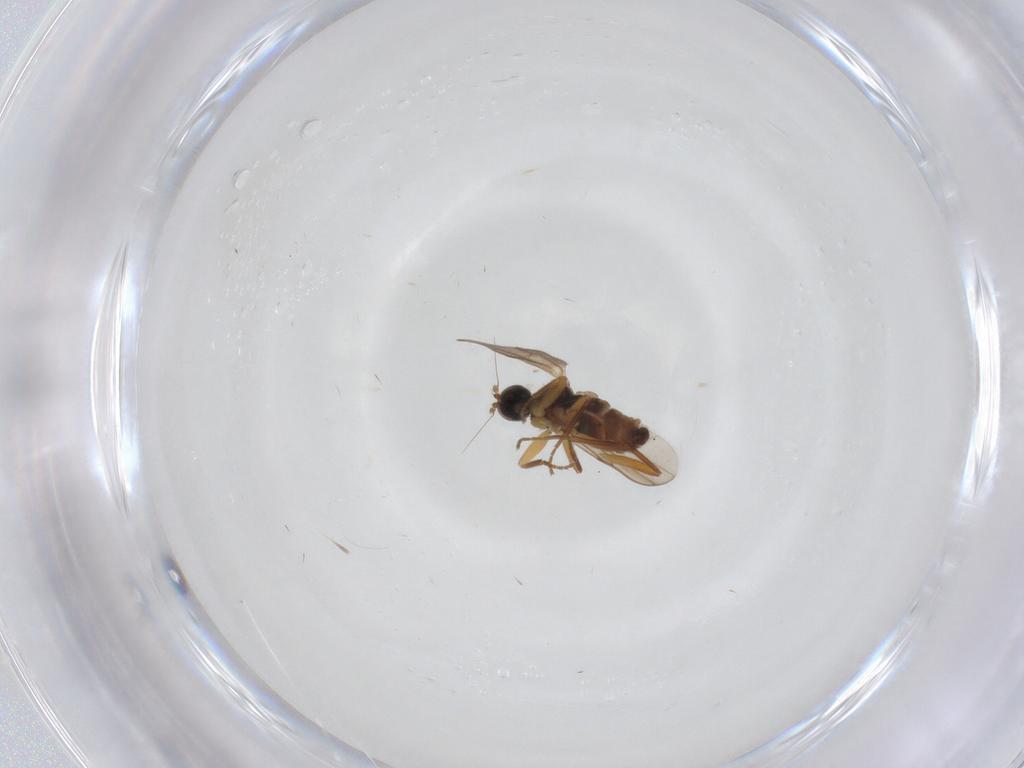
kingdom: Animalia
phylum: Arthropoda
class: Insecta
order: Diptera
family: Hybotidae
